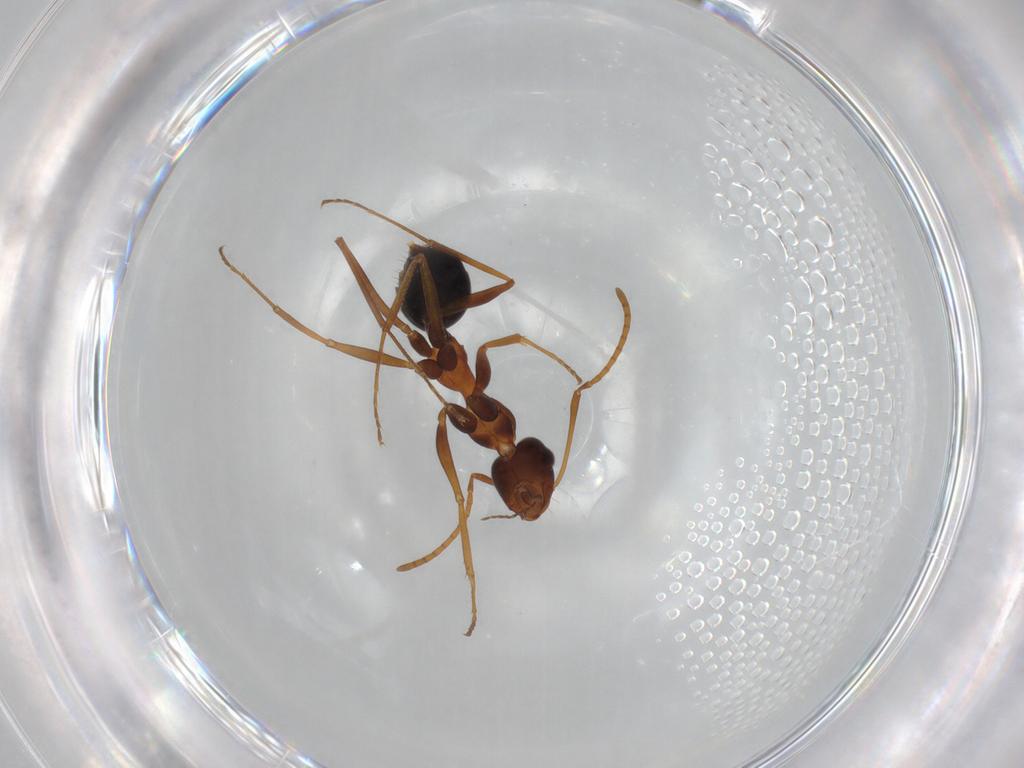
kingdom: Animalia
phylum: Arthropoda
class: Insecta
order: Hymenoptera
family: Formicidae
